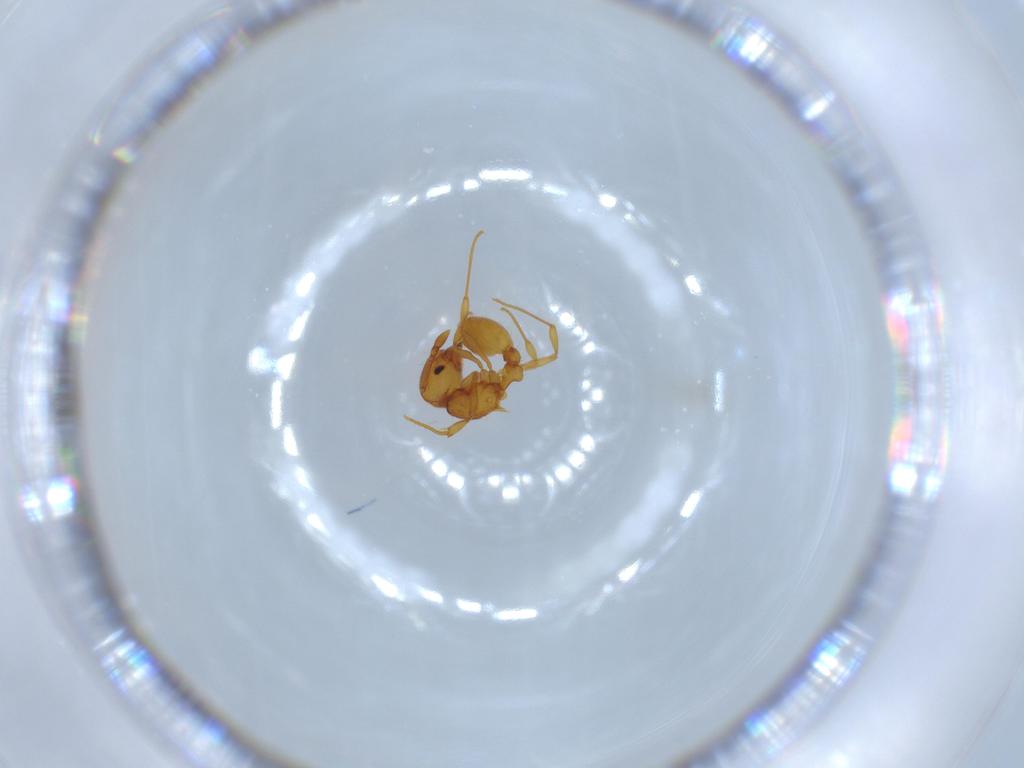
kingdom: Animalia
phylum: Arthropoda
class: Insecta
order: Hymenoptera
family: Formicidae
